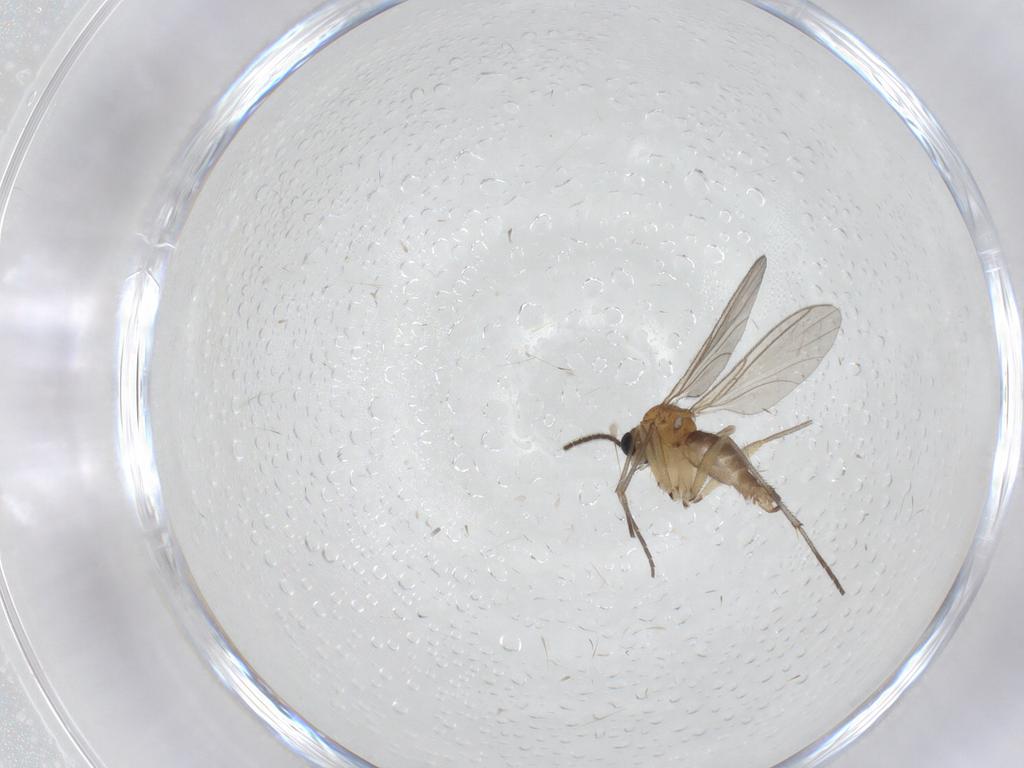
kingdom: Animalia
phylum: Arthropoda
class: Insecta
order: Diptera
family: Sciaridae
